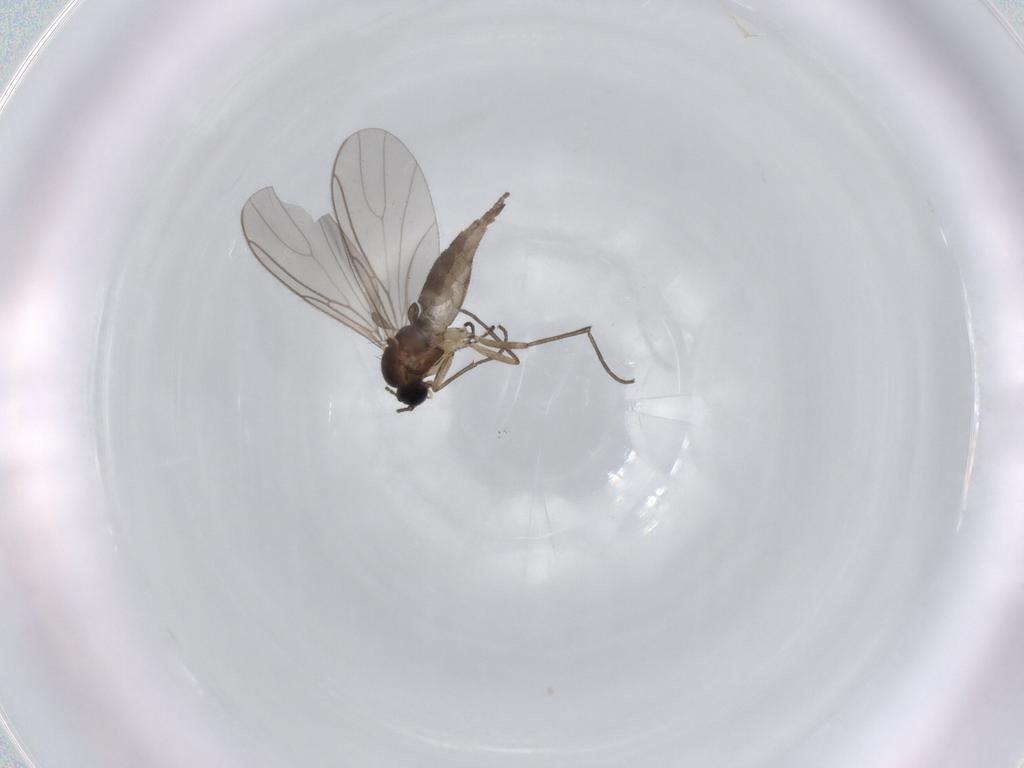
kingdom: Animalia
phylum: Arthropoda
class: Insecta
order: Diptera
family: Sciaridae
